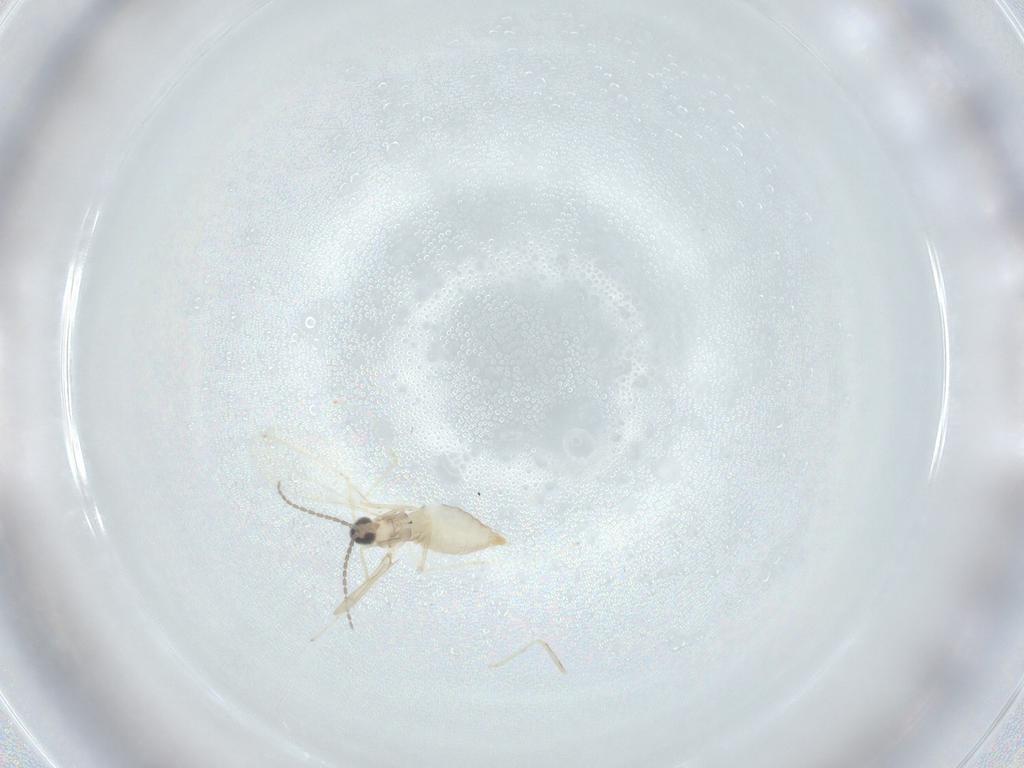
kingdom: Animalia
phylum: Arthropoda
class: Insecta
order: Diptera
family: Cecidomyiidae
